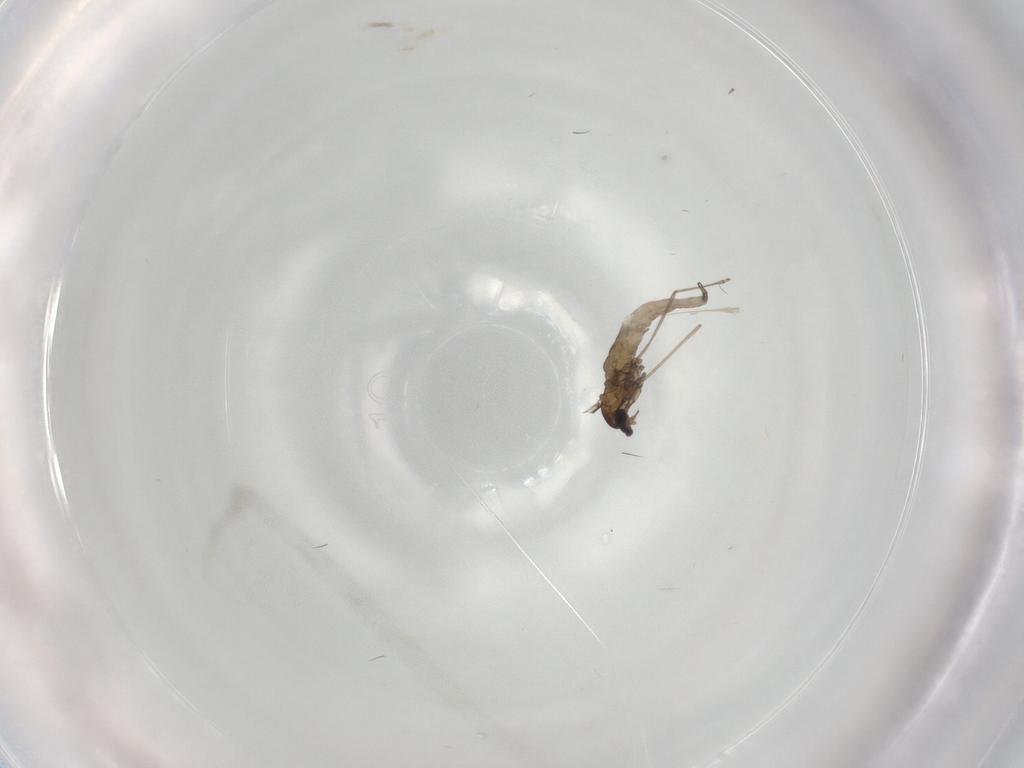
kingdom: Animalia
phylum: Arthropoda
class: Insecta
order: Diptera
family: Cecidomyiidae
